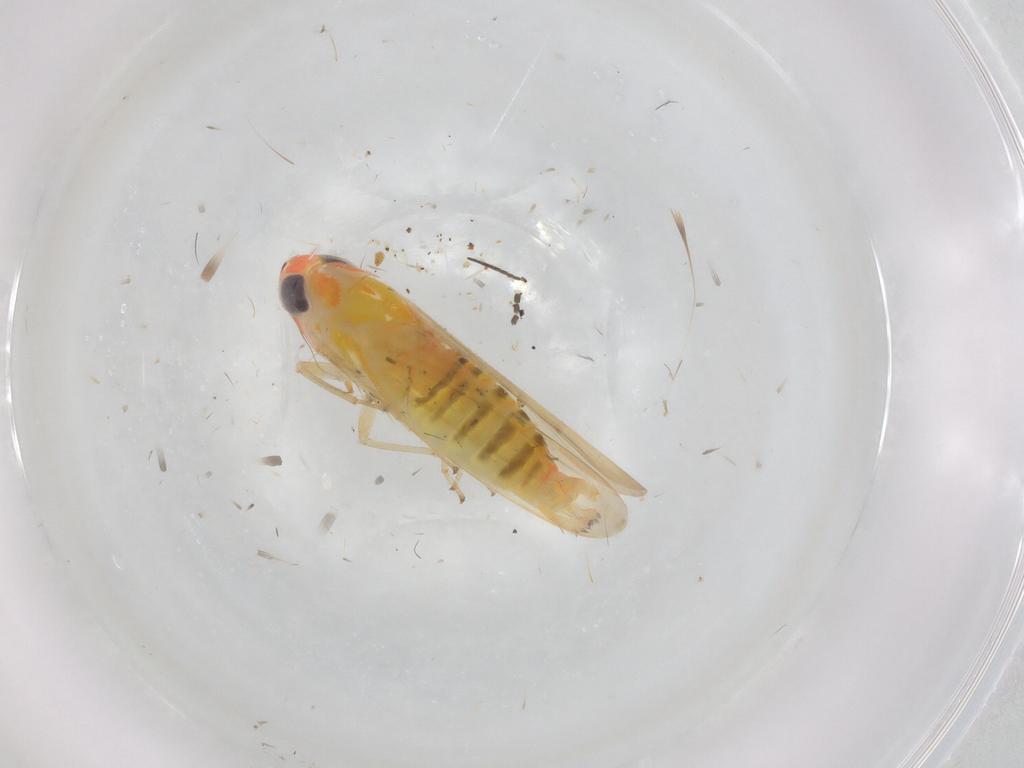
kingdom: Animalia
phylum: Arthropoda
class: Insecta
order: Hemiptera
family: Cicadellidae
